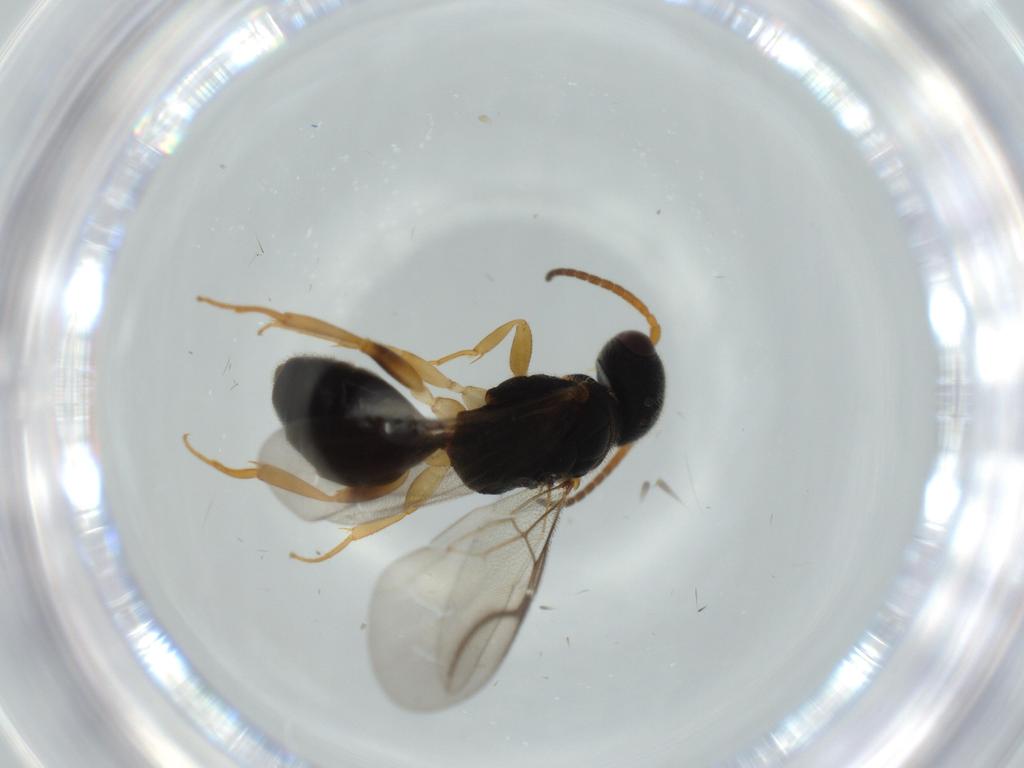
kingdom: Animalia
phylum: Arthropoda
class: Insecta
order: Hymenoptera
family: Bethylidae
